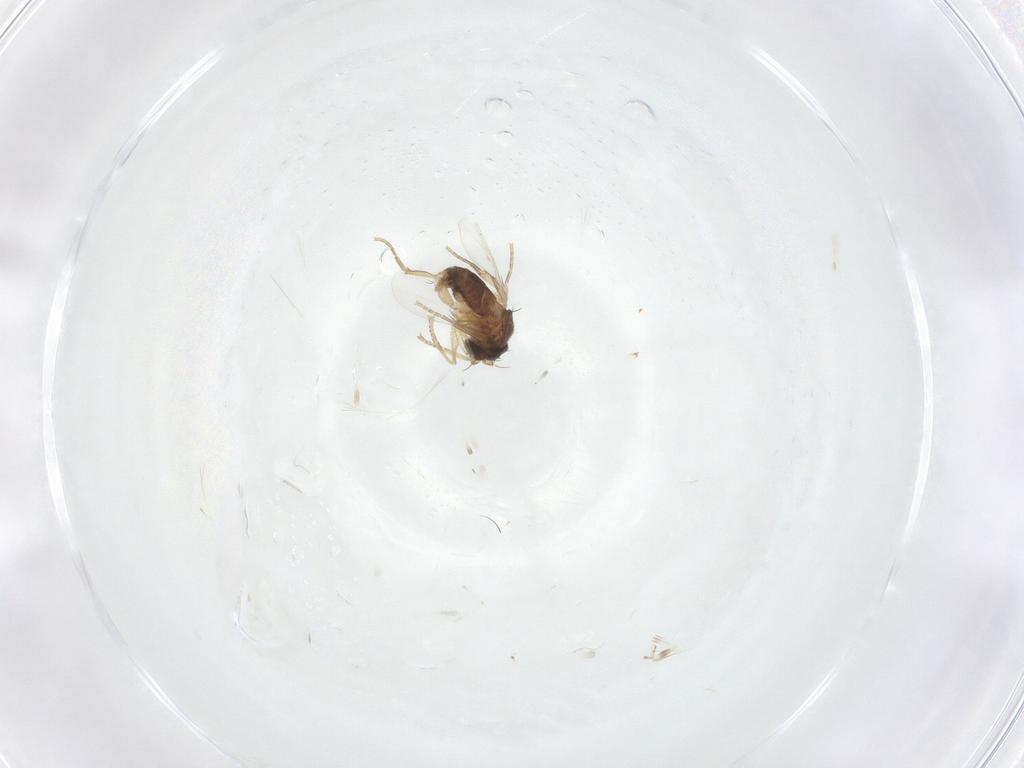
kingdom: Animalia
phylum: Arthropoda
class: Insecta
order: Diptera
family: Phoridae
